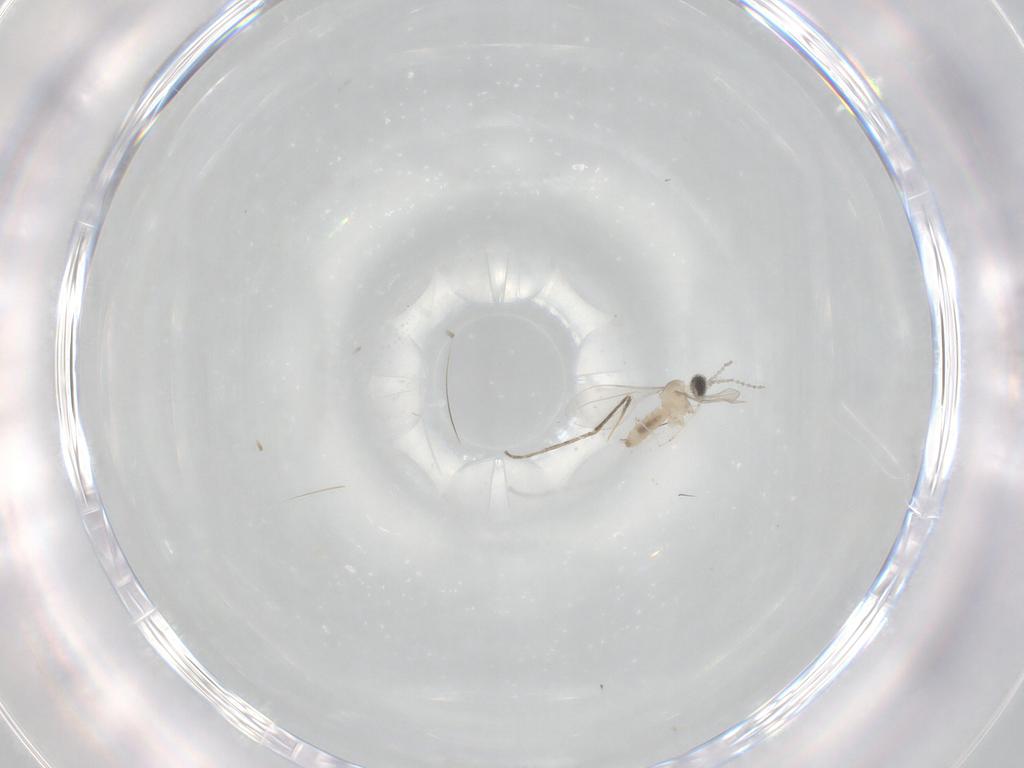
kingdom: Animalia
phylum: Arthropoda
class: Insecta
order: Diptera
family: Cecidomyiidae
